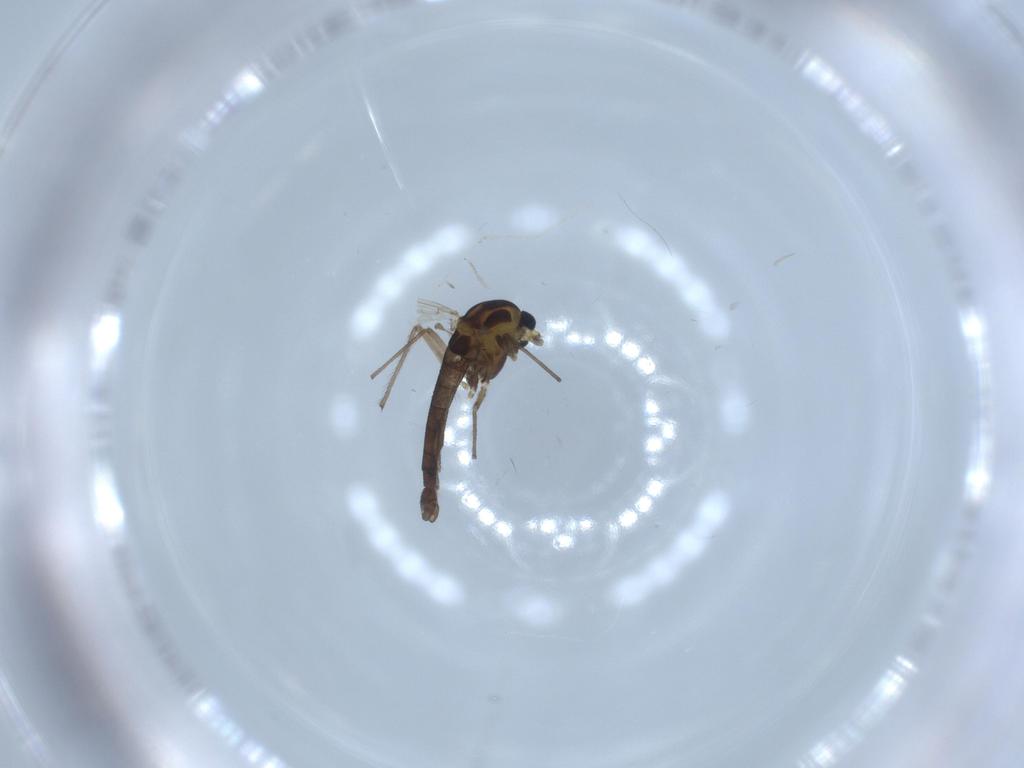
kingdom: Animalia
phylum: Arthropoda
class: Insecta
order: Diptera
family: Chironomidae
